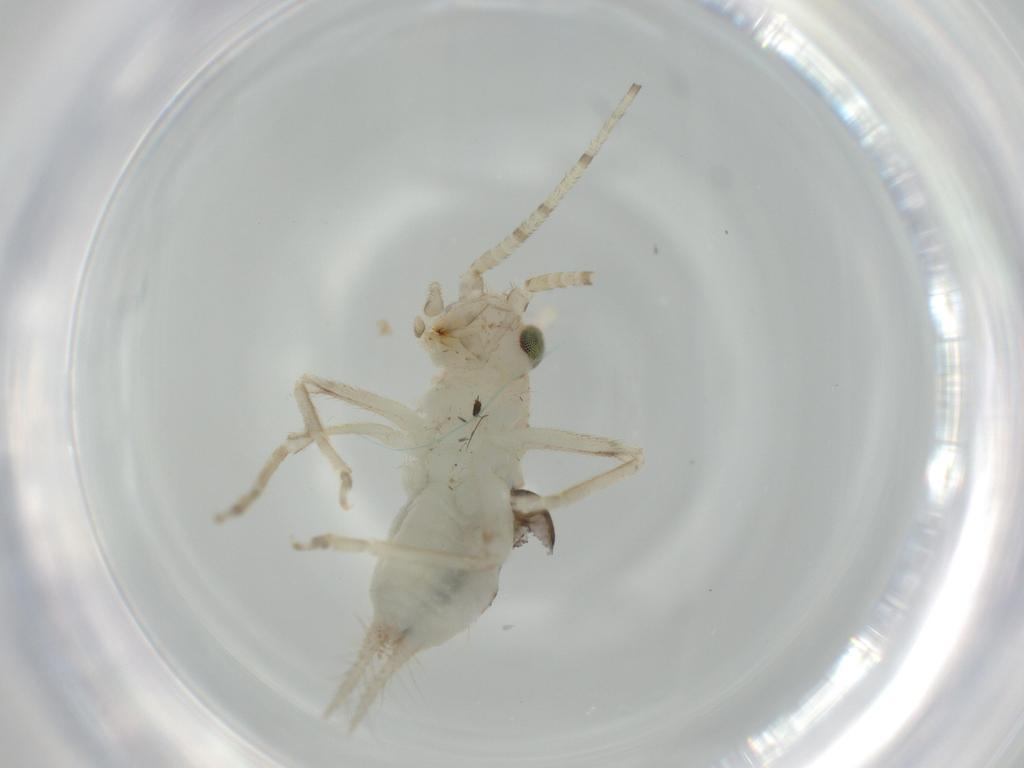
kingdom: Animalia
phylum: Arthropoda
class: Insecta
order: Orthoptera
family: Trigonidiidae
